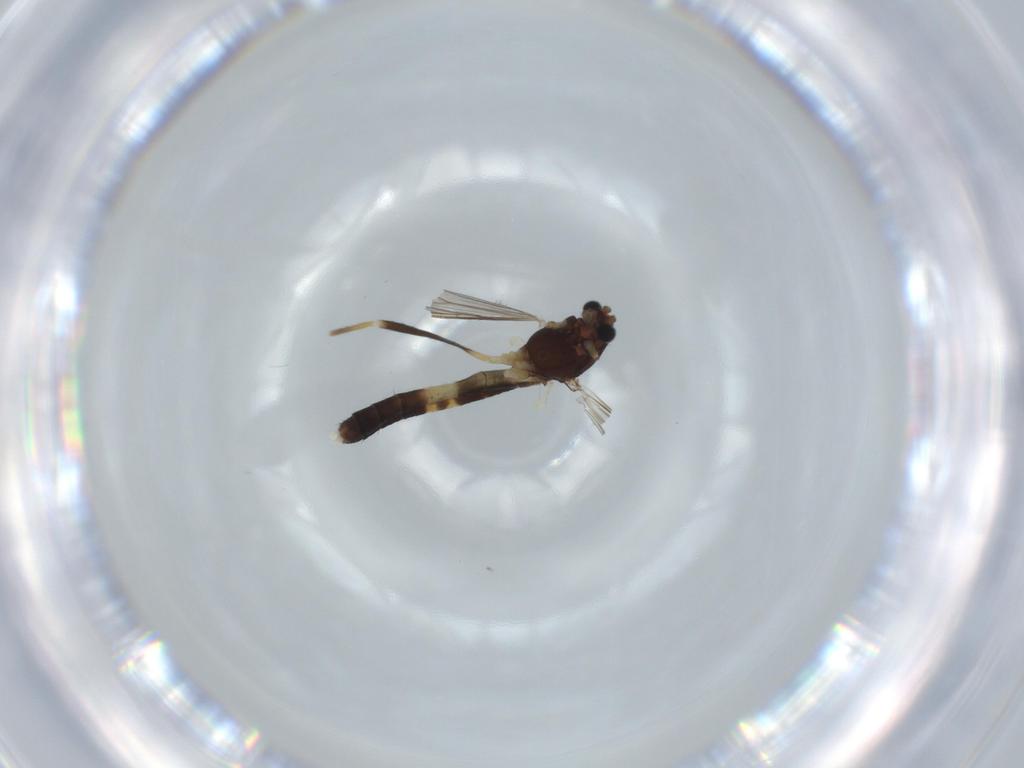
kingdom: Animalia
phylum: Arthropoda
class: Insecta
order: Diptera
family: Chironomidae
